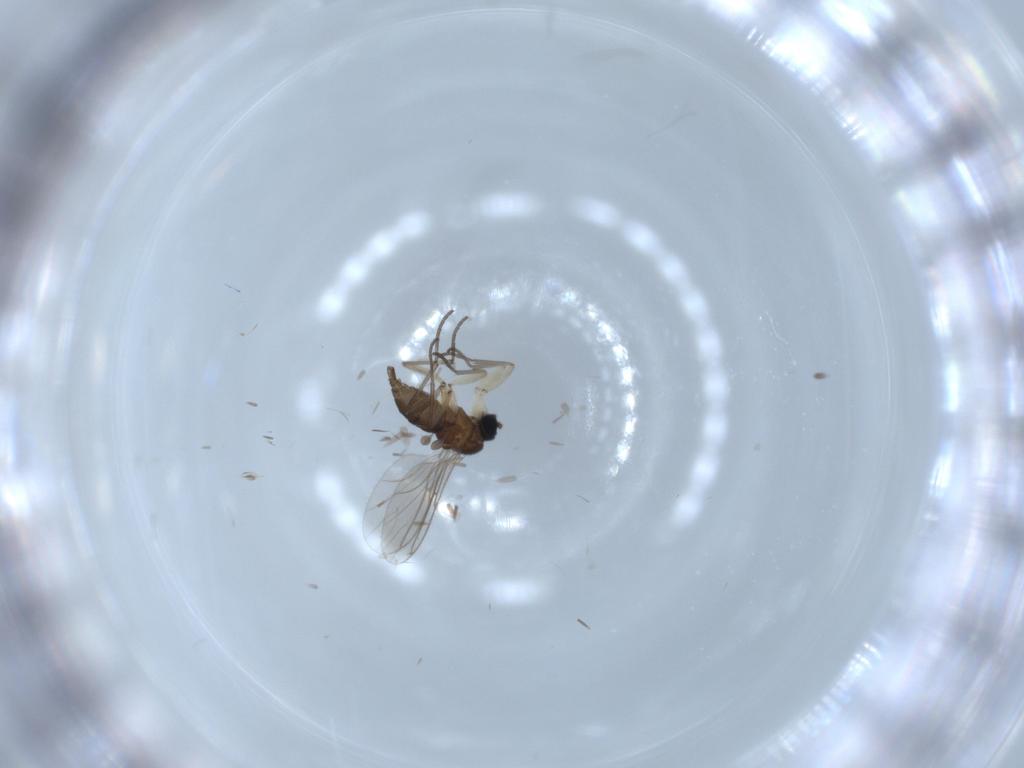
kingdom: Animalia
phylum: Arthropoda
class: Insecta
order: Diptera
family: Sciaridae
